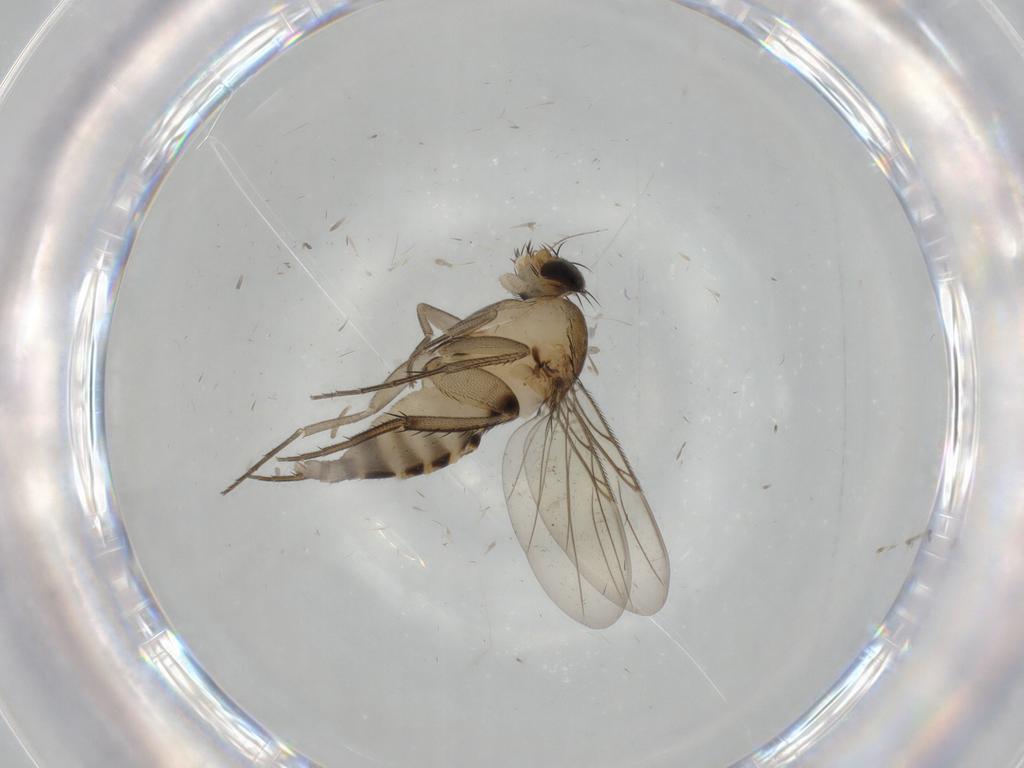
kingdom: Animalia
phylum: Arthropoda
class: Insecta
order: Diptera
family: Phoridae
